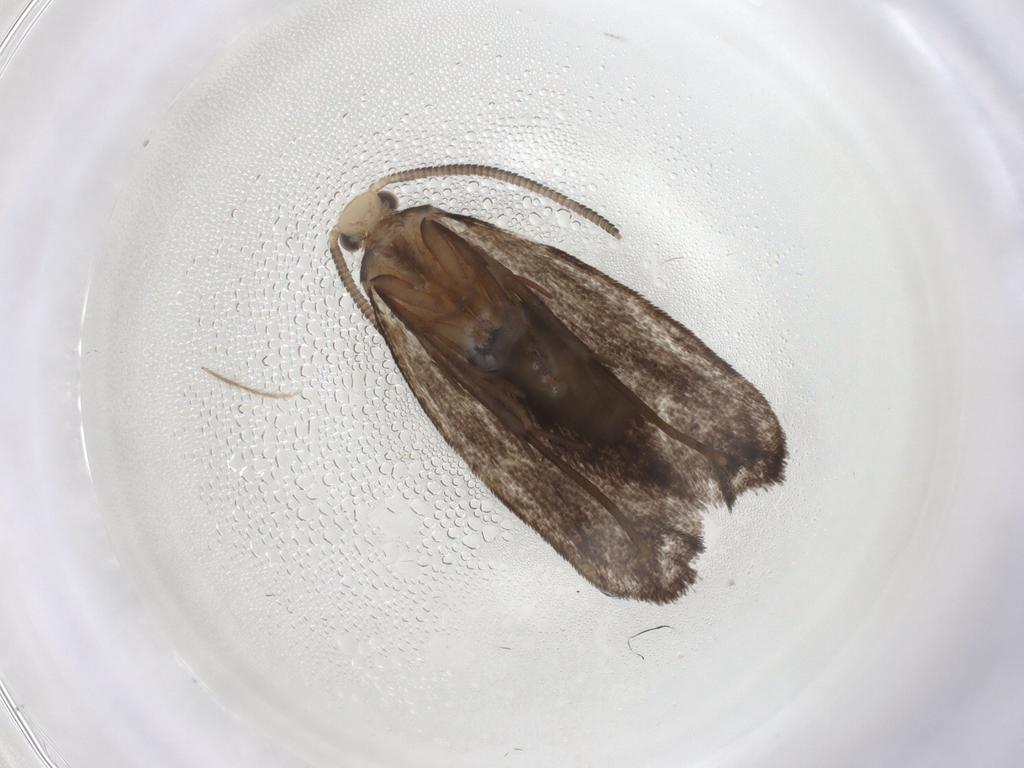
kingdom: Animalia
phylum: Arthropoda
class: Insecta
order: Lepidoptera
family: Dryadaulidae
